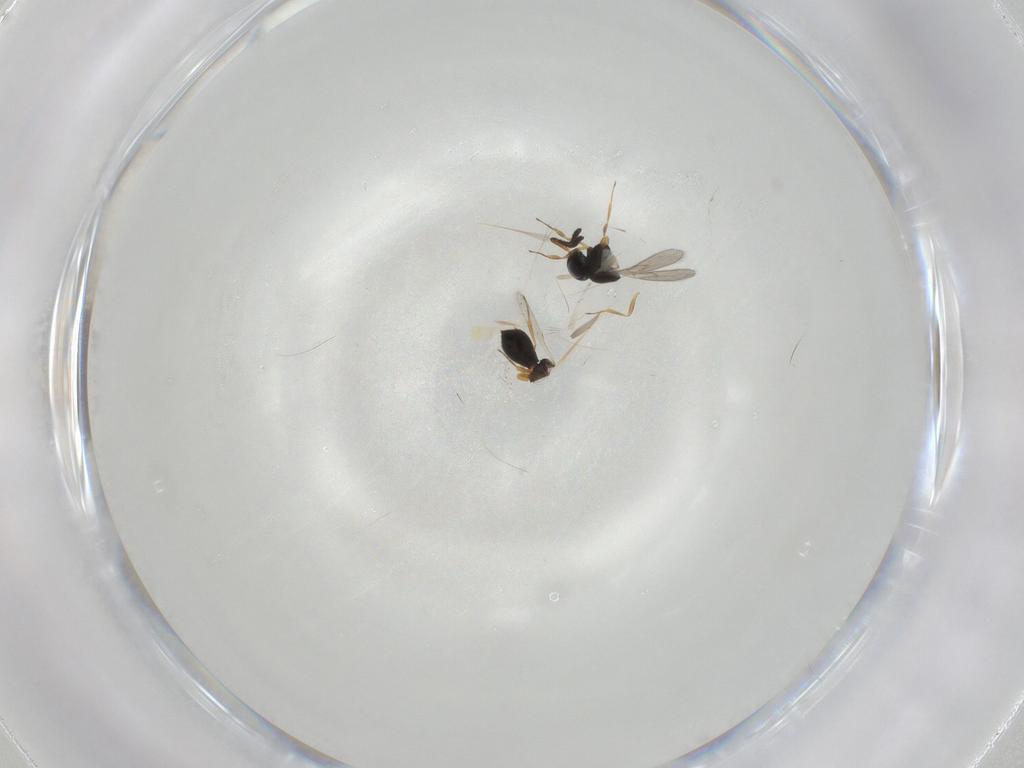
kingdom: Animalia
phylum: Arthropoda
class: Insecta
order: Hymenoptera
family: Scelionidae
